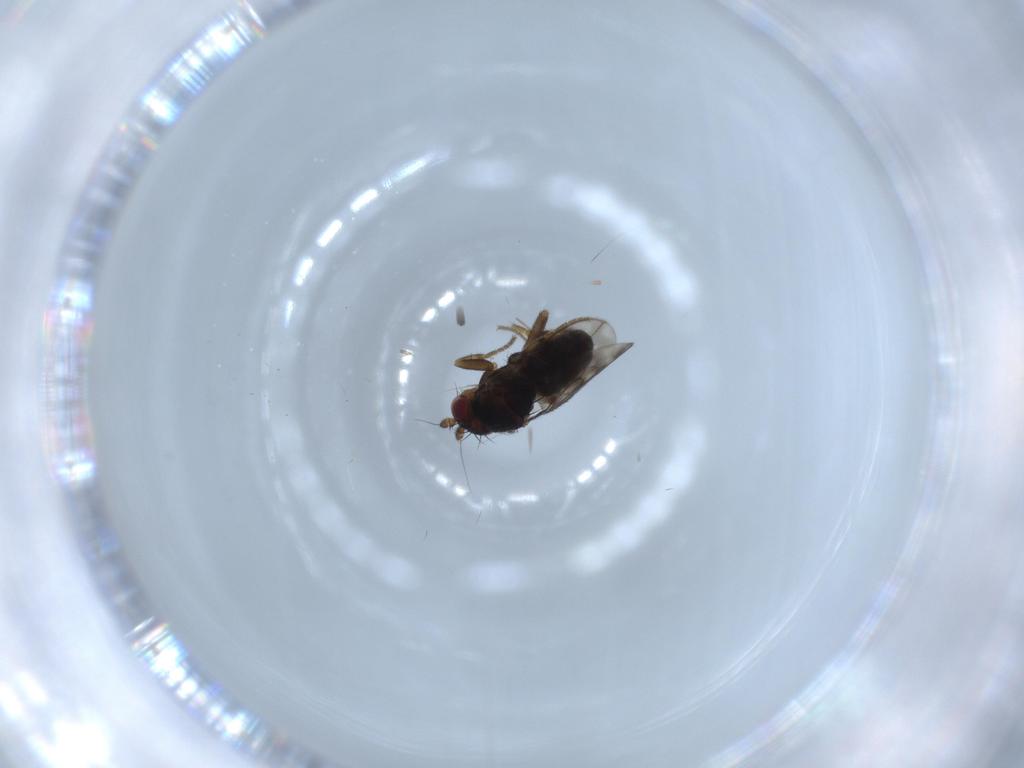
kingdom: Animalia
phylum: Arthropoda
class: Insecta
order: Diptera
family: Sphaeroceridae
